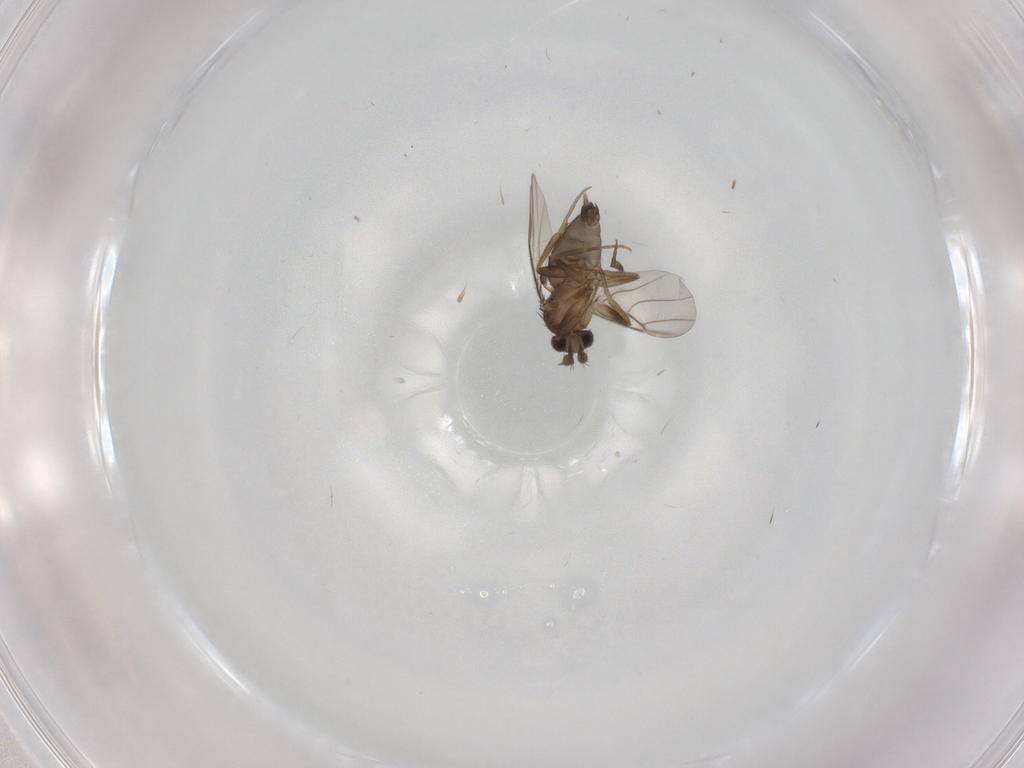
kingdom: Animalia
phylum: Arthropoda
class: Insecta
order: Diptera
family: Phoridae
